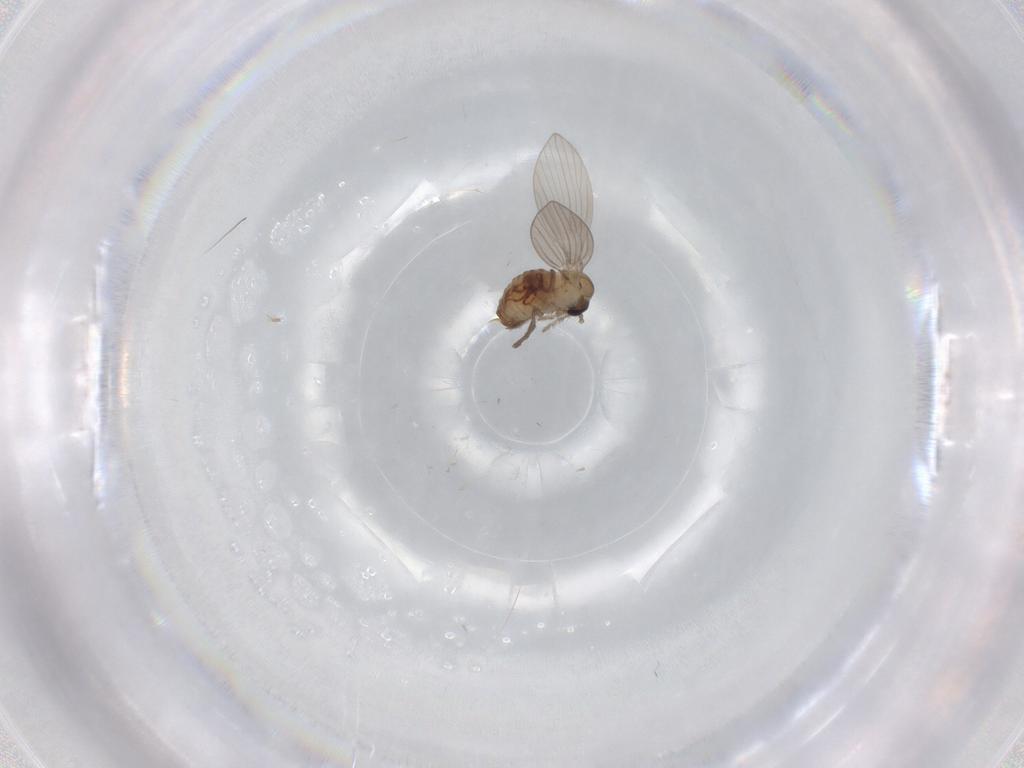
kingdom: Animalia
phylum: Arthropoda
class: Insecta
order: Diptera
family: Psychodidae
